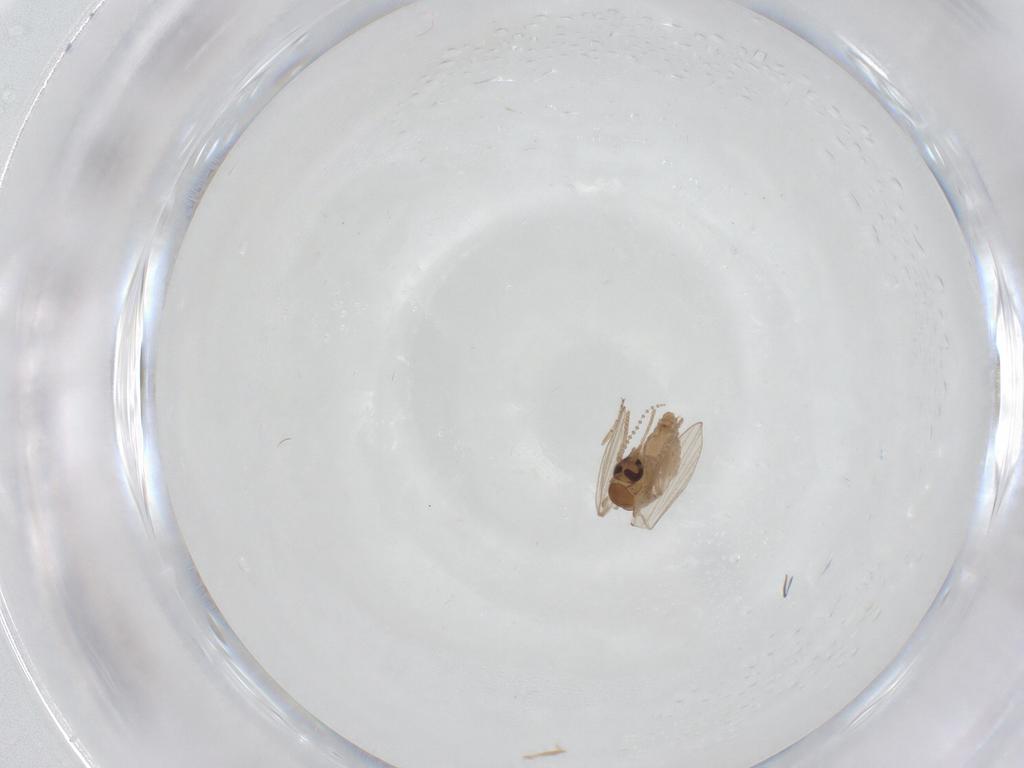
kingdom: Animalia
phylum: Arthropoda
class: Insecta
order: Diptera
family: Psychodidae
